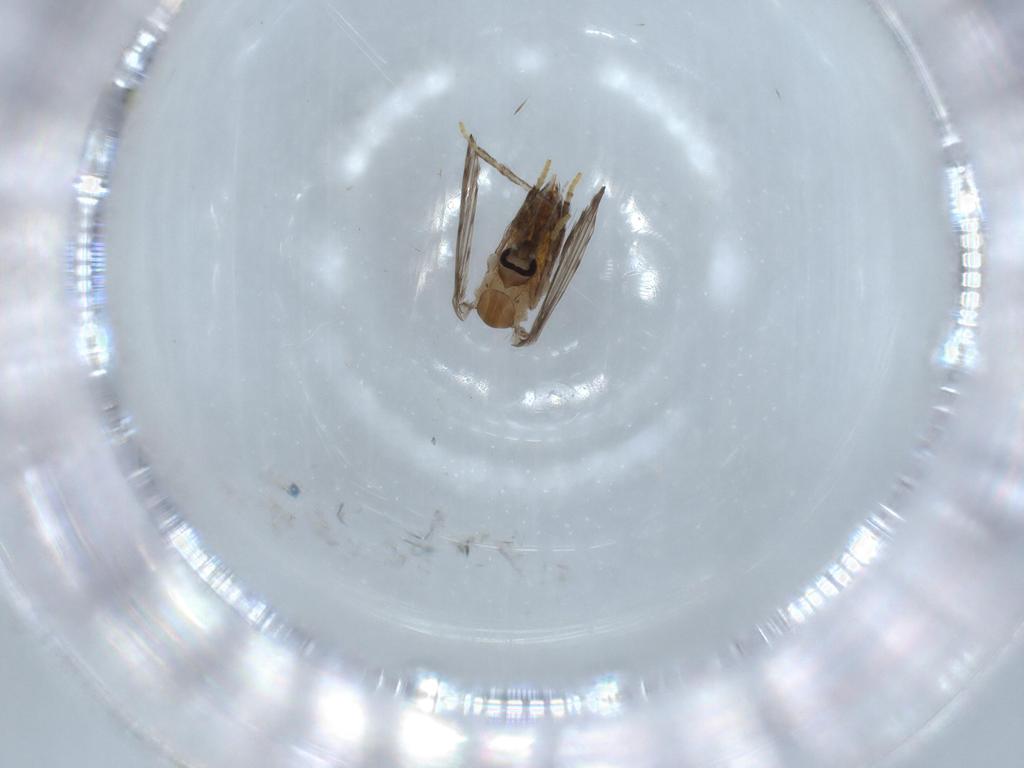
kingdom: Animalia
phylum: Arthropoda
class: Insecta
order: Diptera
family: Psychodidae
